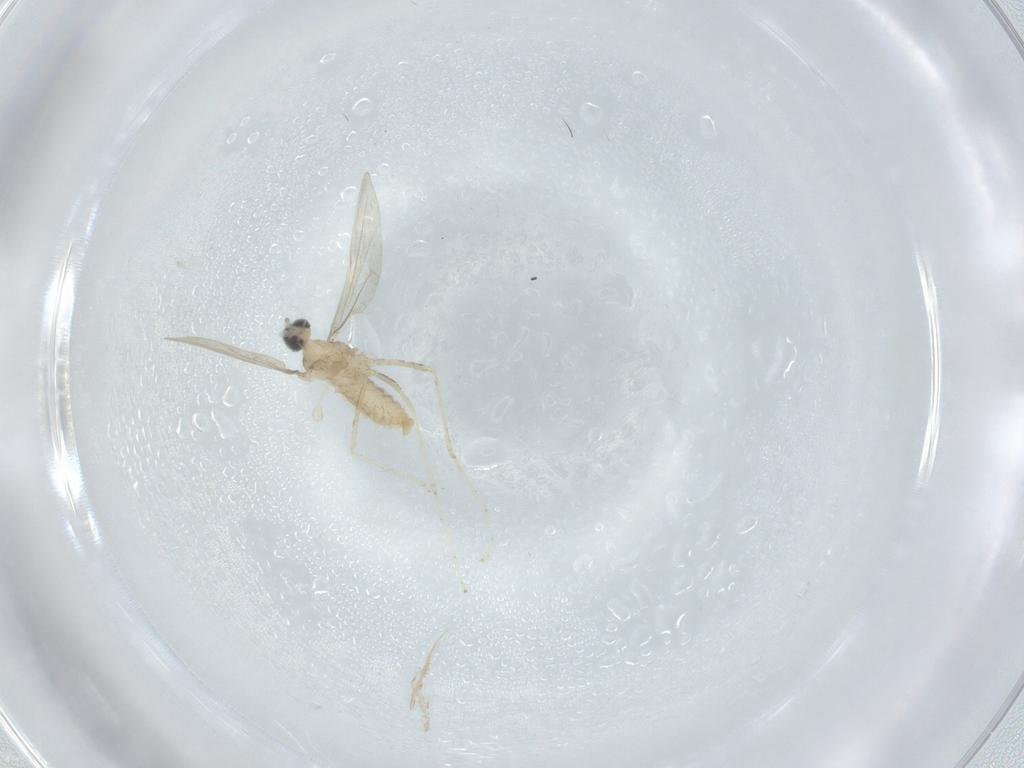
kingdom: Animalia
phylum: Arthropoda
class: Insecta
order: Diptera
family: Cecidomyiidae
